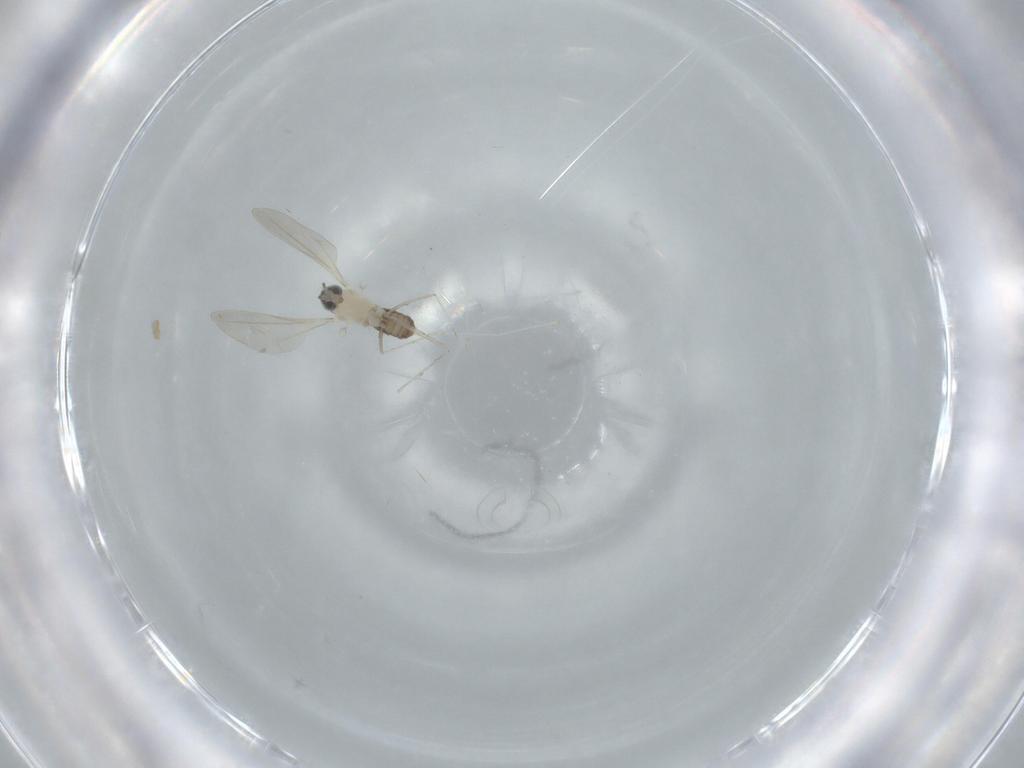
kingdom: Animalia
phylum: Arthropoda
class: Insecta
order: Diptera
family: Cecidomyiidae
